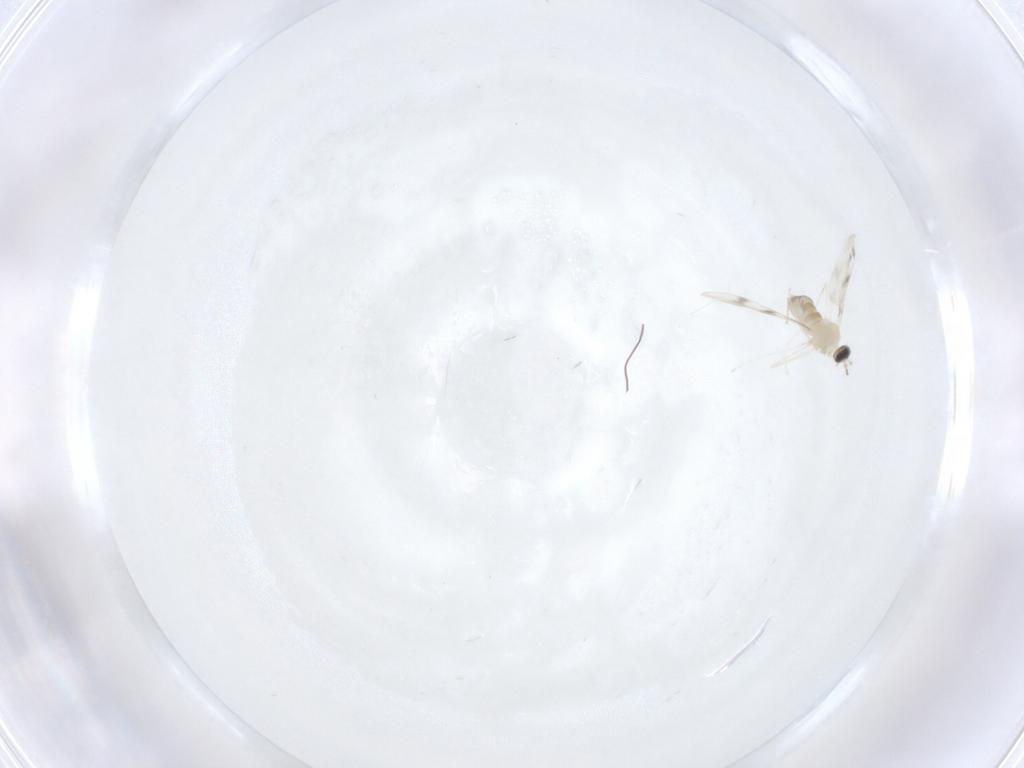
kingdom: Animalia
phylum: Arthropoda
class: Insecta
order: Diptera
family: Cecidomyiidae
